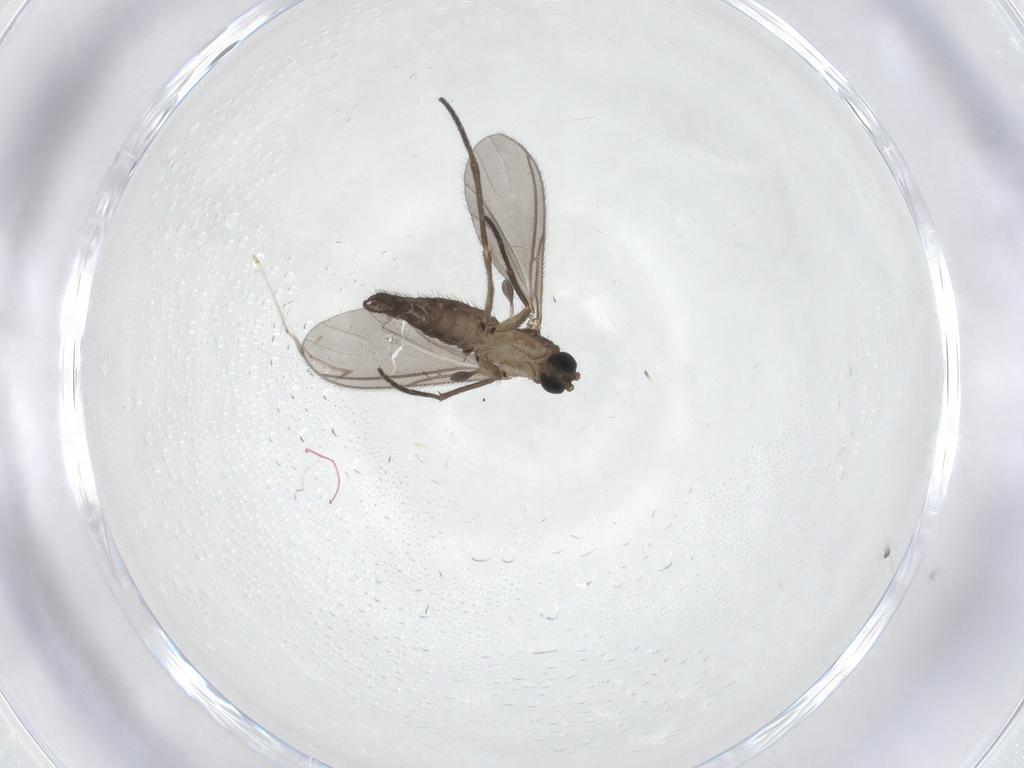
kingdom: Animalia
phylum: Arthropoda
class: Insecta
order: Diptera
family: Sciaridae
